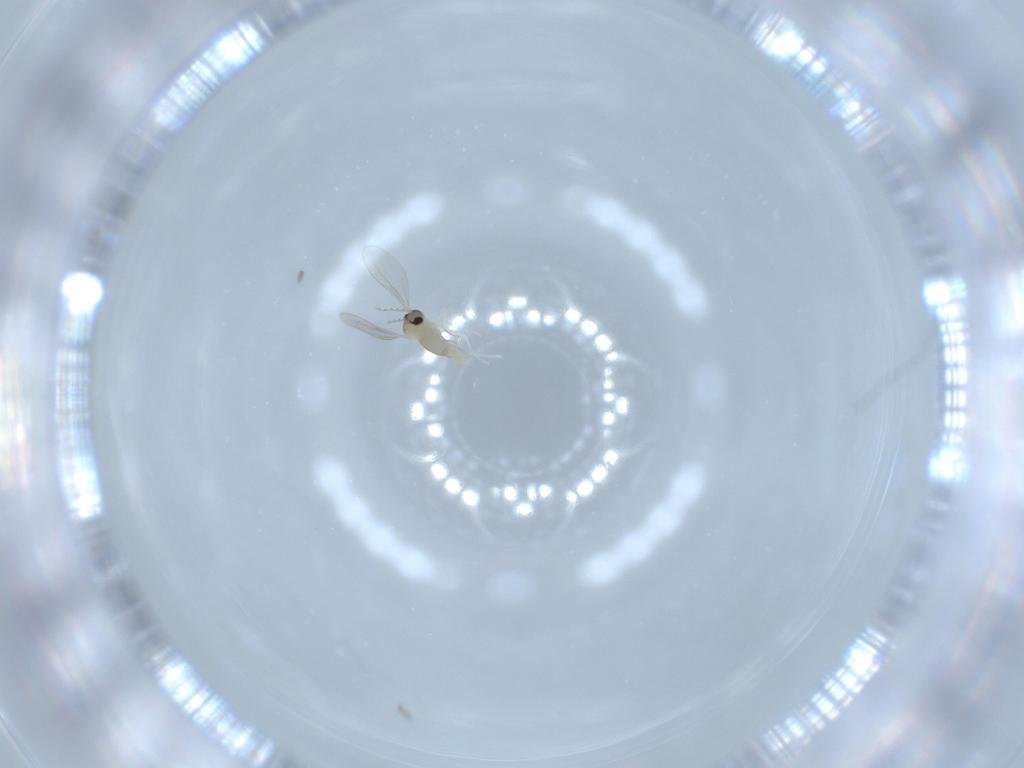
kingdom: Animalia
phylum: Arthropoda
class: Insecta
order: Diptera
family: Cecidomyiidae
